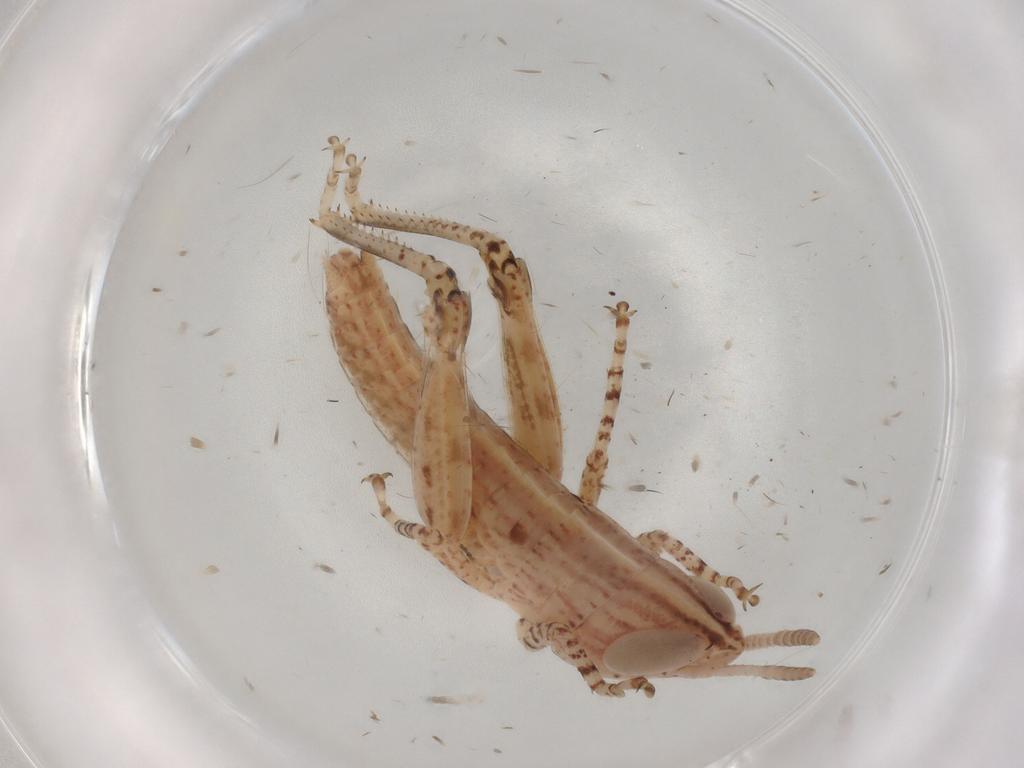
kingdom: Animalia
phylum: Arthropoda
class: Insecta
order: Orthoptera
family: Acrididae
